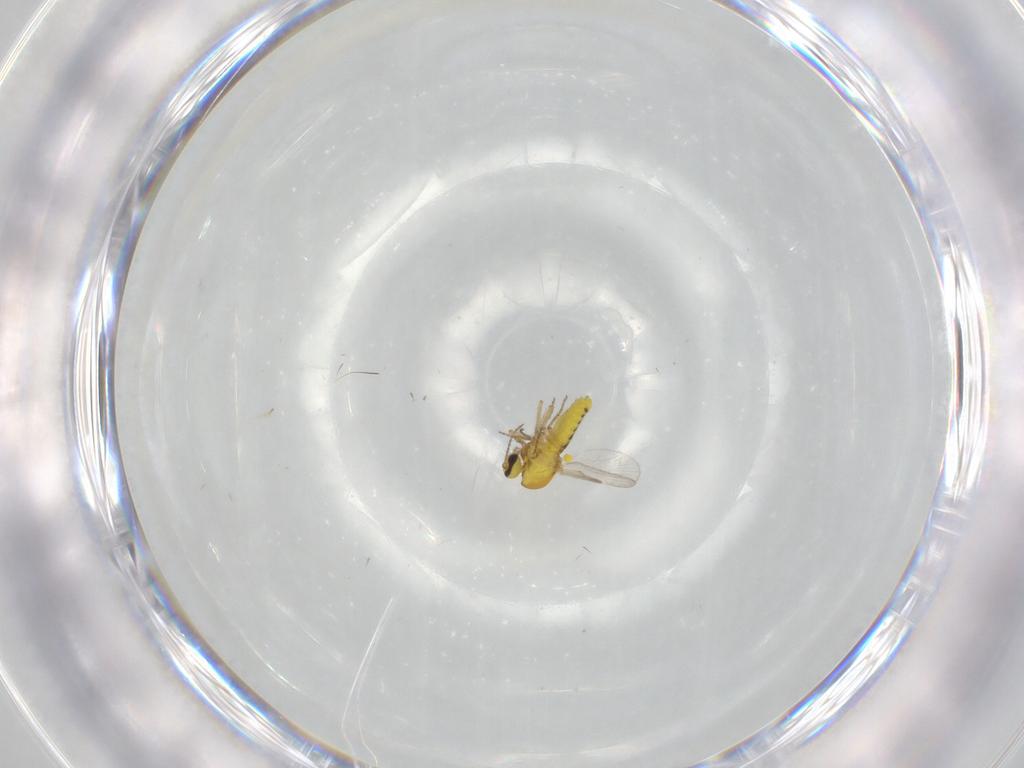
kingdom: Animalia
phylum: Arthropoda
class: Insecta
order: Diptera
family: Ceratopogonidae
